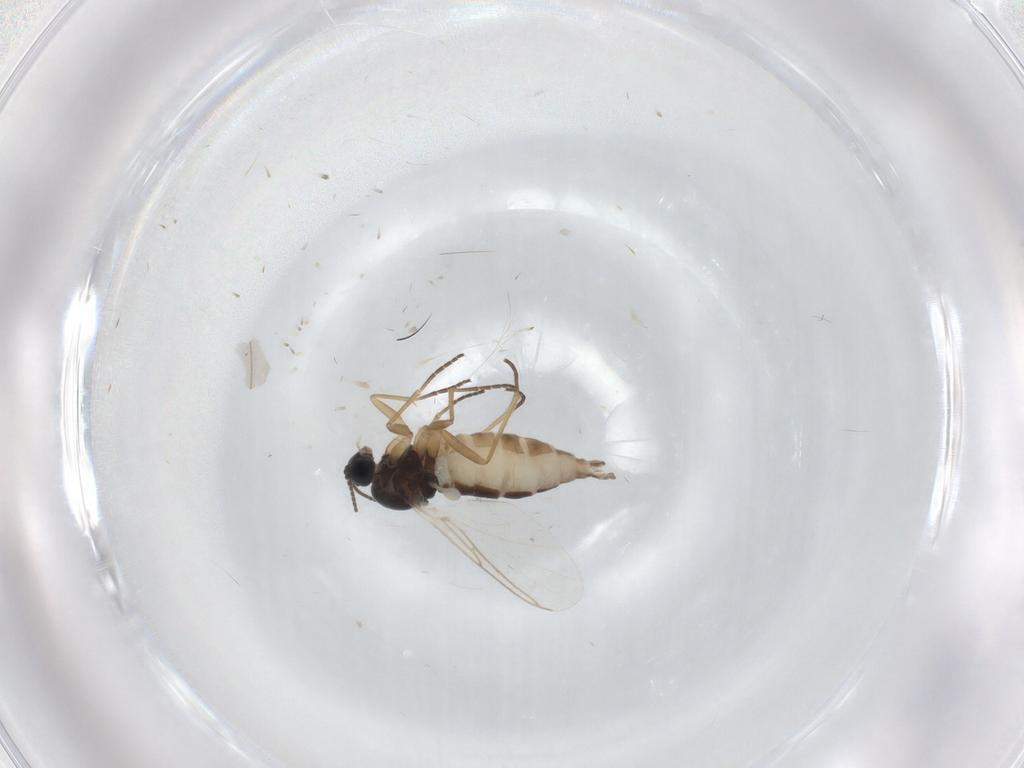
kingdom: Animalia
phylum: Arthropoda
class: Insecta
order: Diptera
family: Sciaridae
